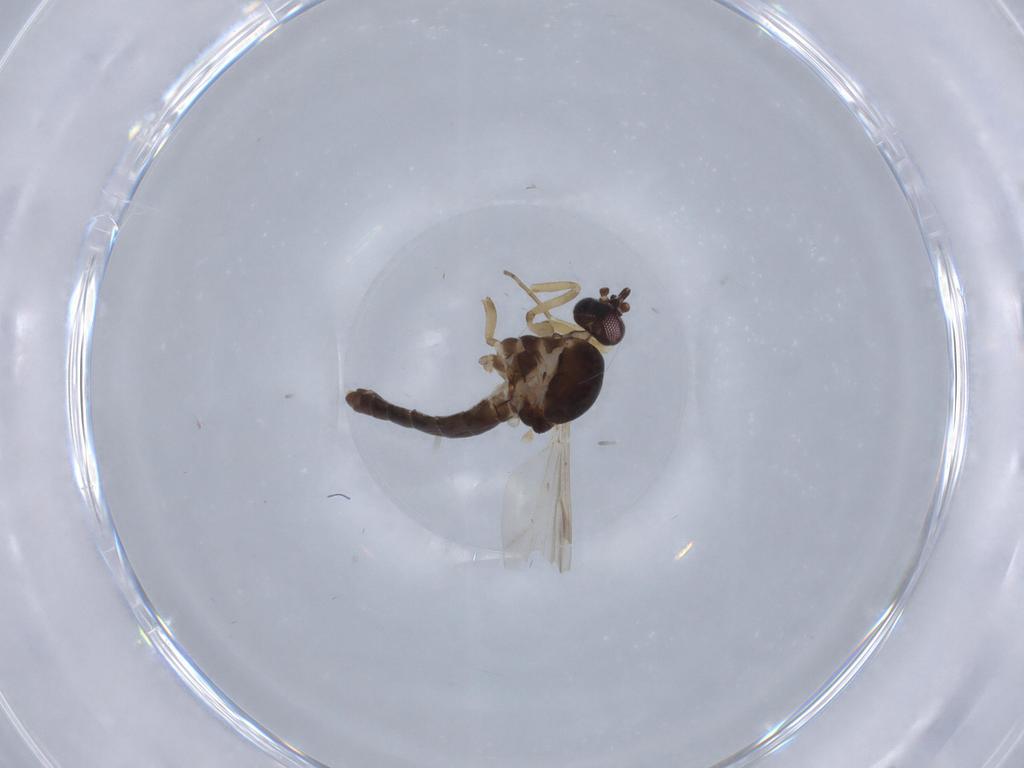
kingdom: Animalia
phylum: Arthropoda
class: Insecta
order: Diptera
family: Ceratopogonidae
